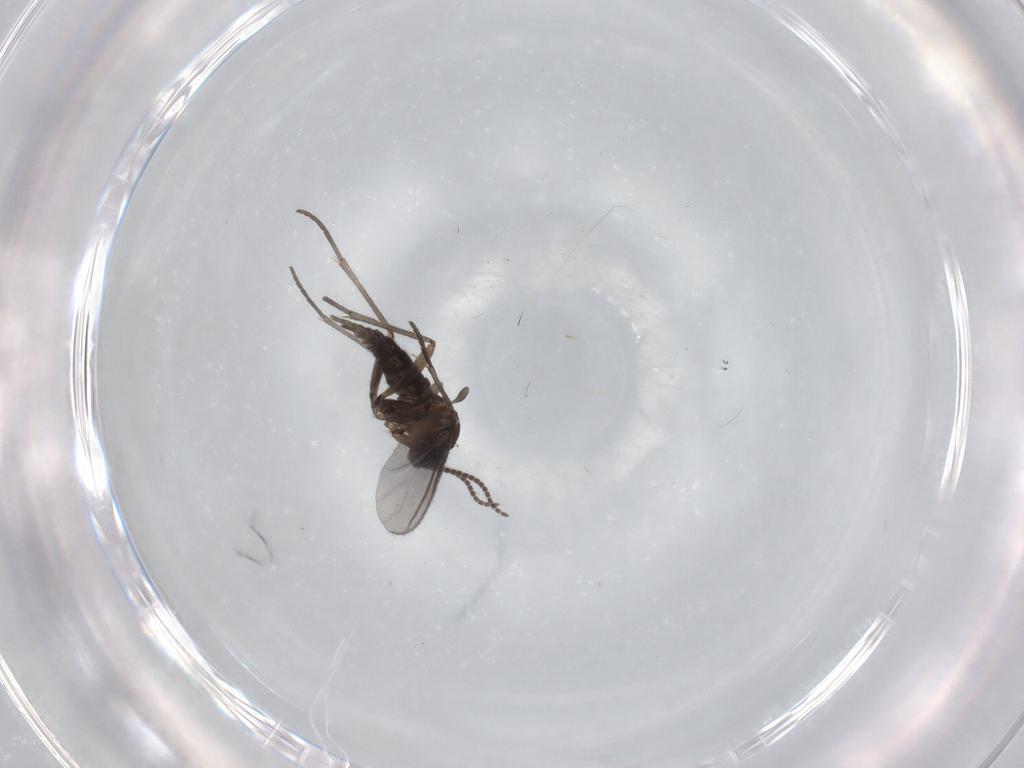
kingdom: Animalia
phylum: Arthropoda
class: Insecta
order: Diptera
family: Sciaridae
